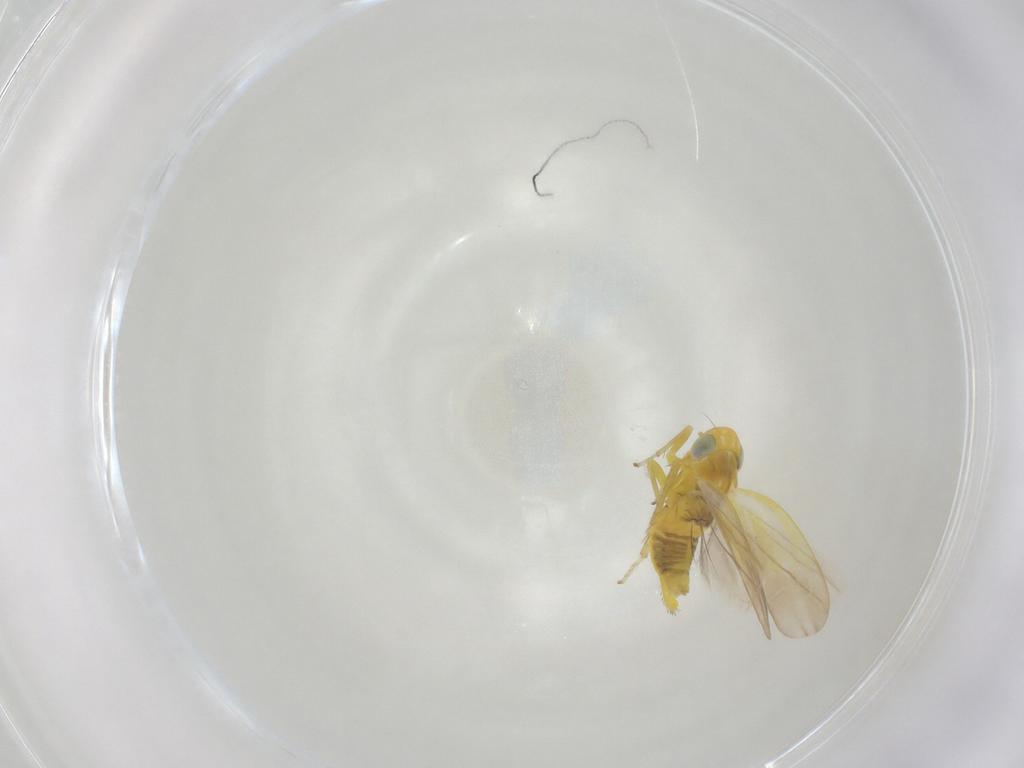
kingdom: Animalia
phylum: Arthropoda
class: Insecta
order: Hemiptera
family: Cicadellidae
